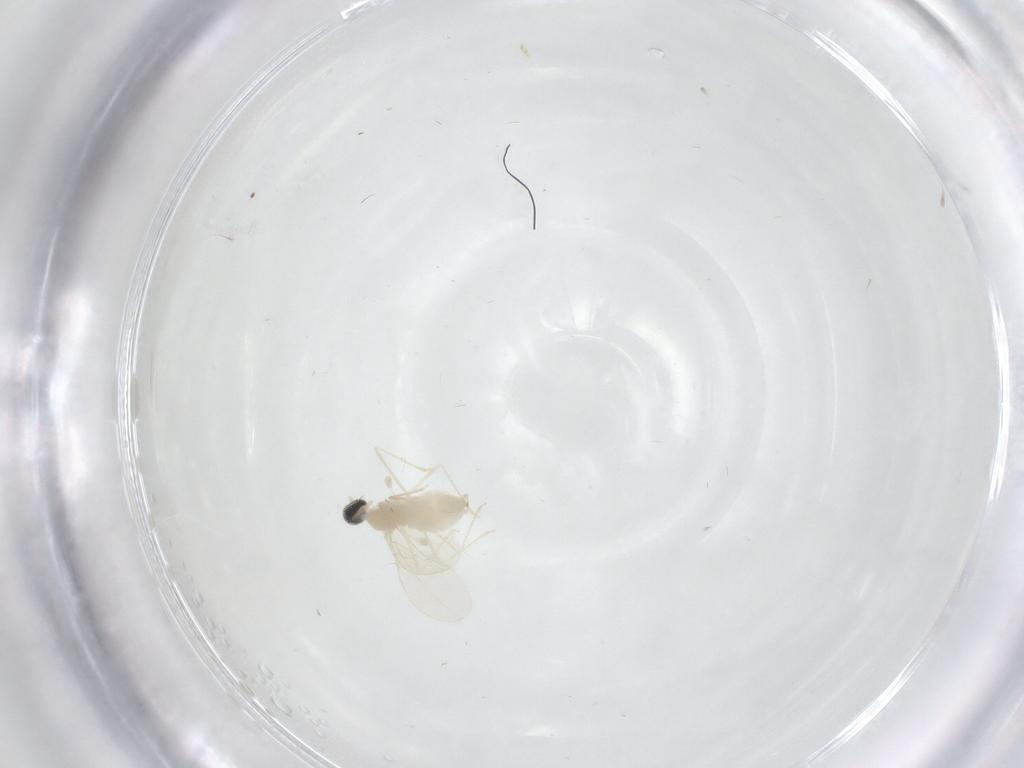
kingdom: Animalia
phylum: Arthropoda
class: Insecta
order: Diptera
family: Cecidomyiidae
